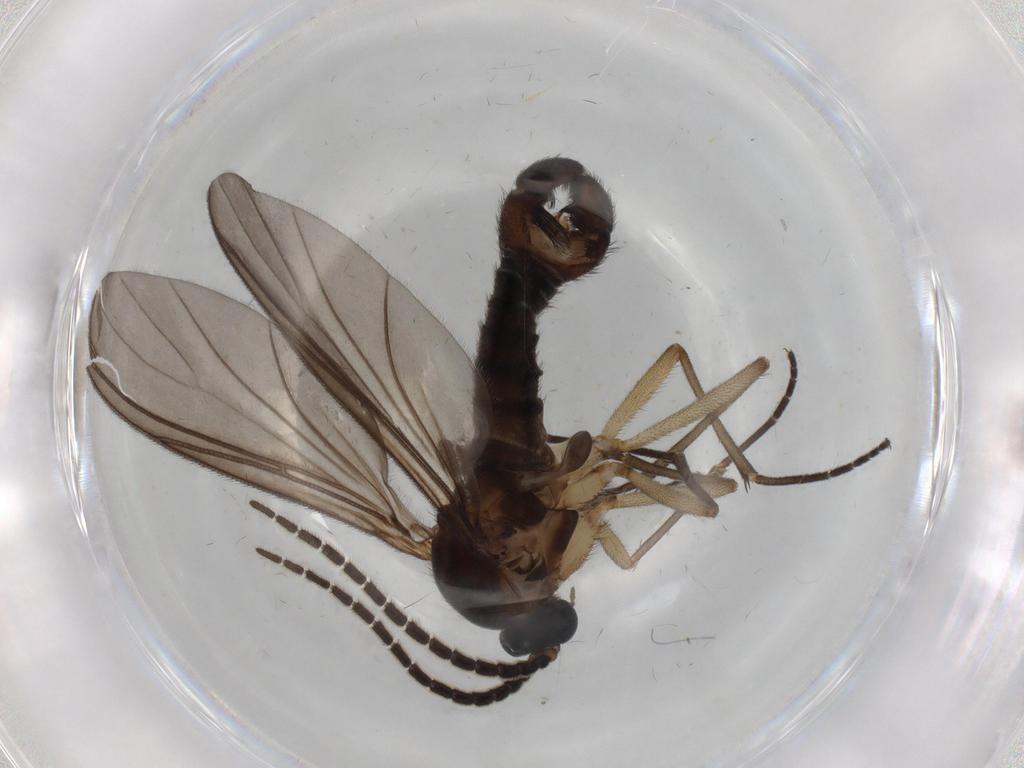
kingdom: Animalia
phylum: Arthropoda
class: Insecta
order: Diptera
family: Sciaridae
